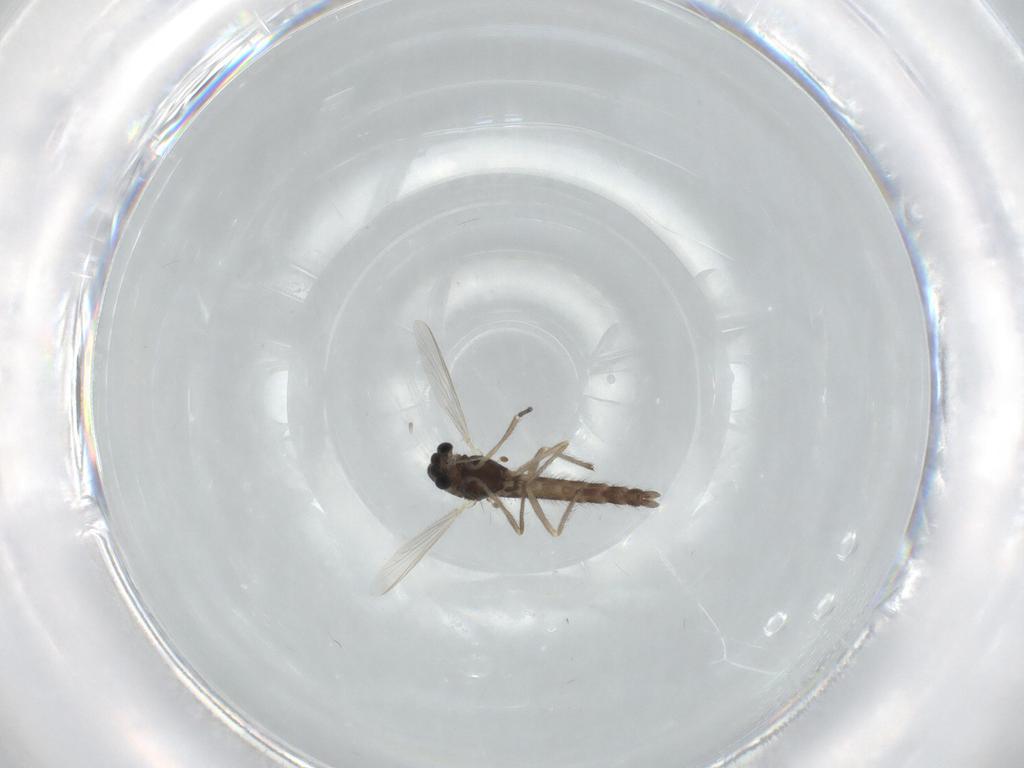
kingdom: Animalia
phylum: Arthropoda
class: Insecta
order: Diptera
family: Chironomidae
